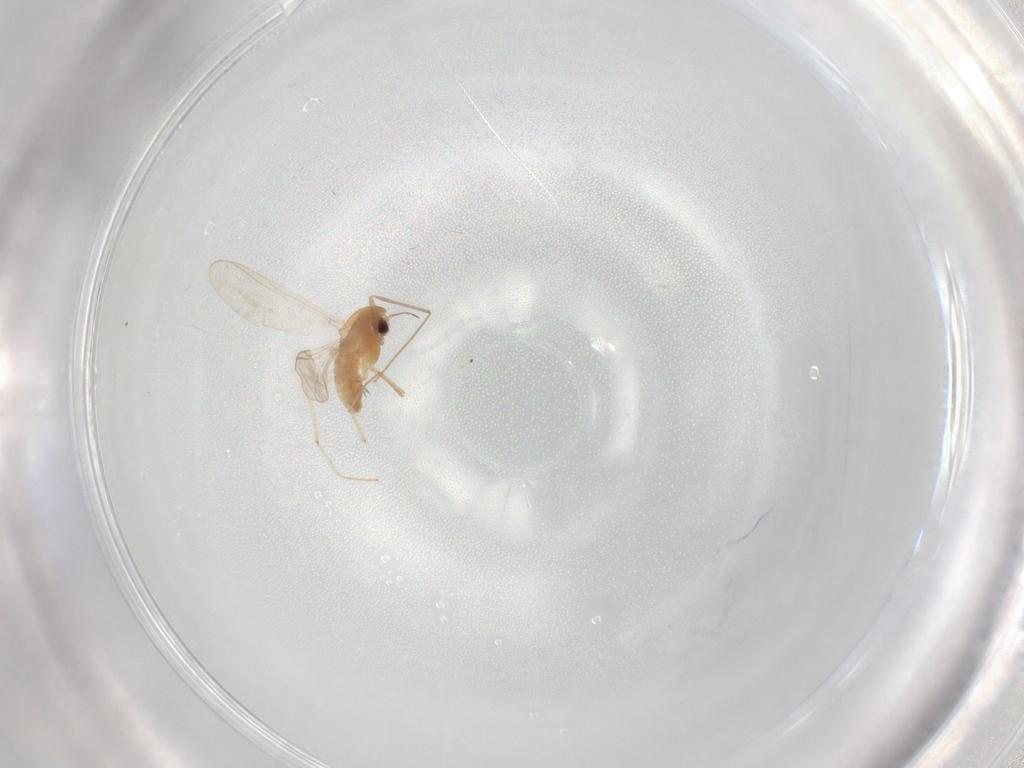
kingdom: Animalia
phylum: Arthropoda
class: Insecta
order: Diptera
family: Chironomidae
